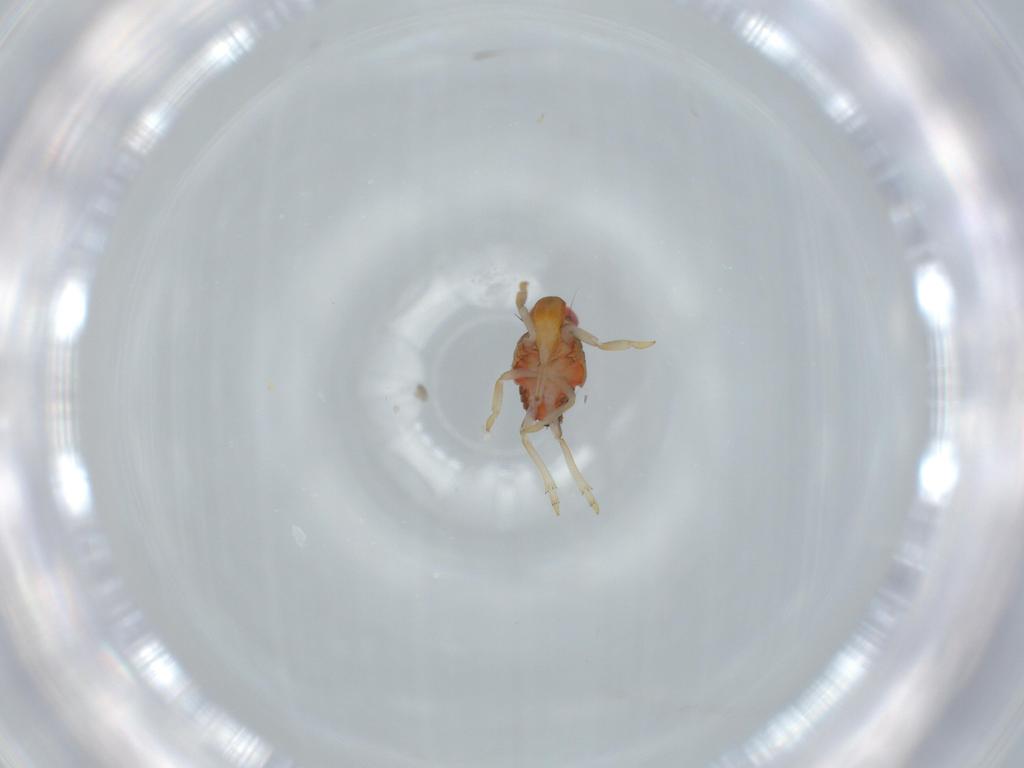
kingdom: Animalia
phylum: Arthropoda
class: Insecta
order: Hemiptera
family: Issidae
